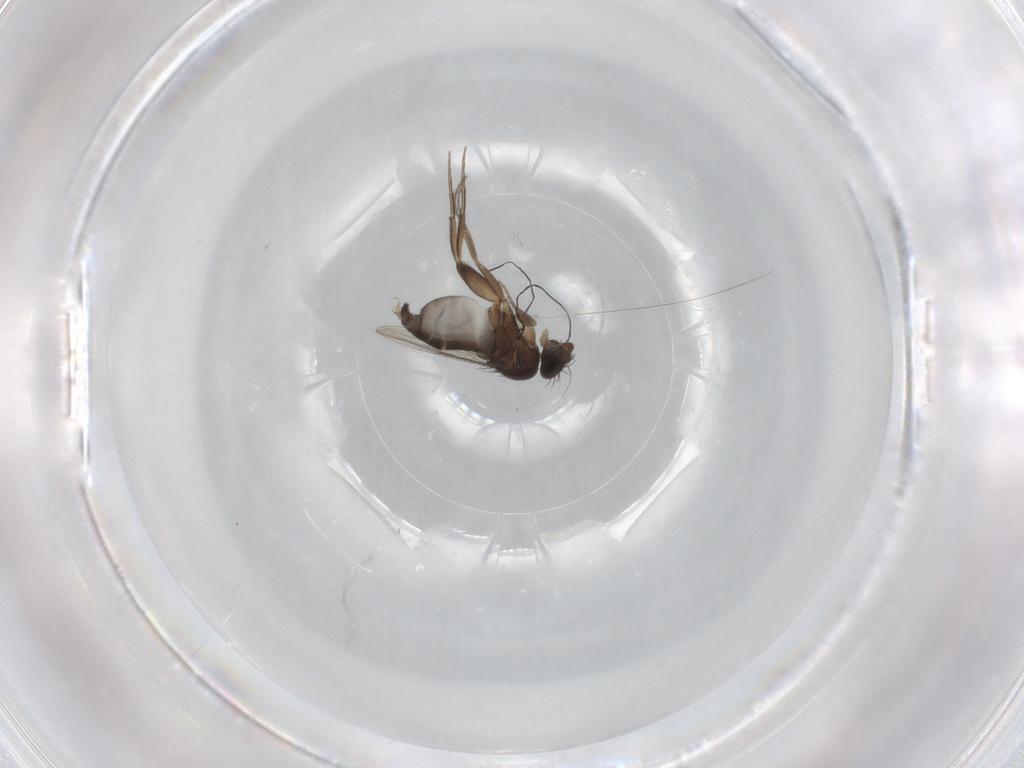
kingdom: Animalia
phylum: Arthropoda
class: Insecta
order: Diptera
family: Phoridae
